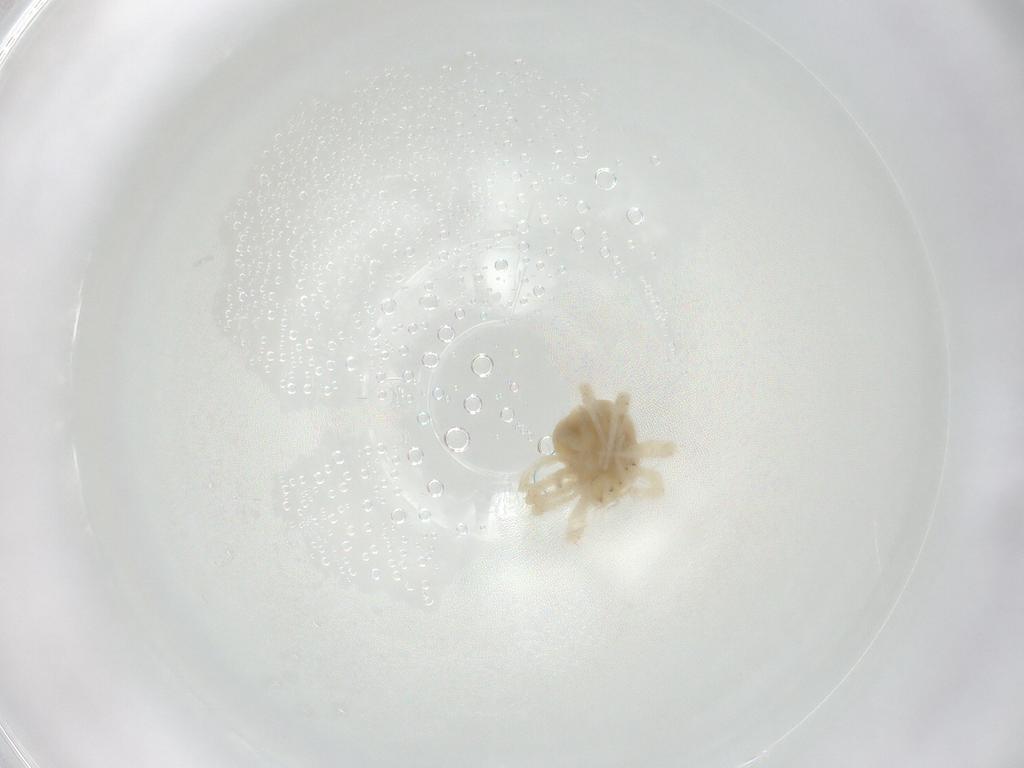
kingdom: Animalia
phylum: Arthropoda
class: Arachnida
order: Trombidiformes
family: Anystidae
